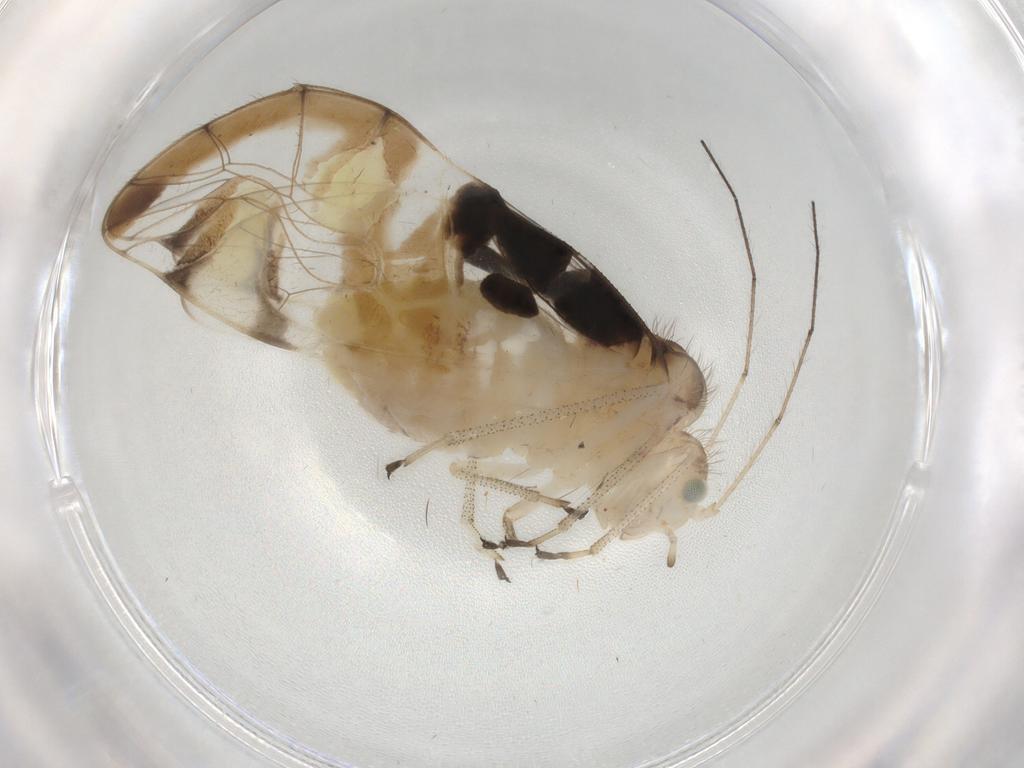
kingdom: Animalia
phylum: Arthropoda
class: Insecta
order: Psocodea
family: Amphipsocidae
